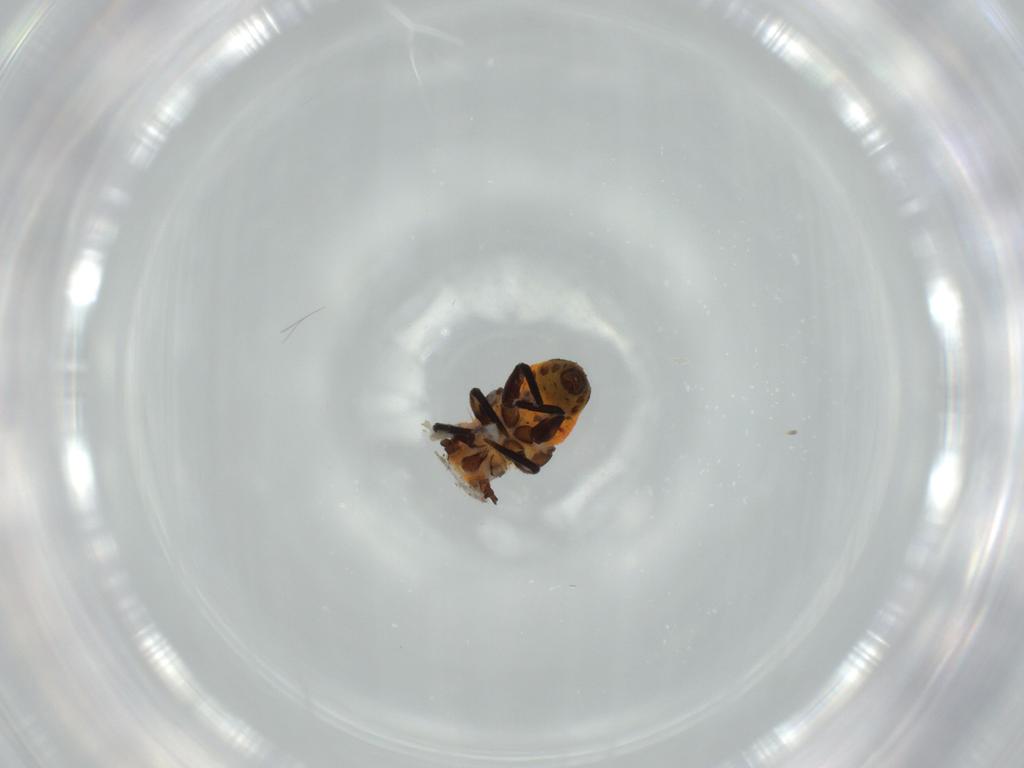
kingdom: Animalia
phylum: Arthropoda
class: Insecta
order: Hemiptera
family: Psyllidae
